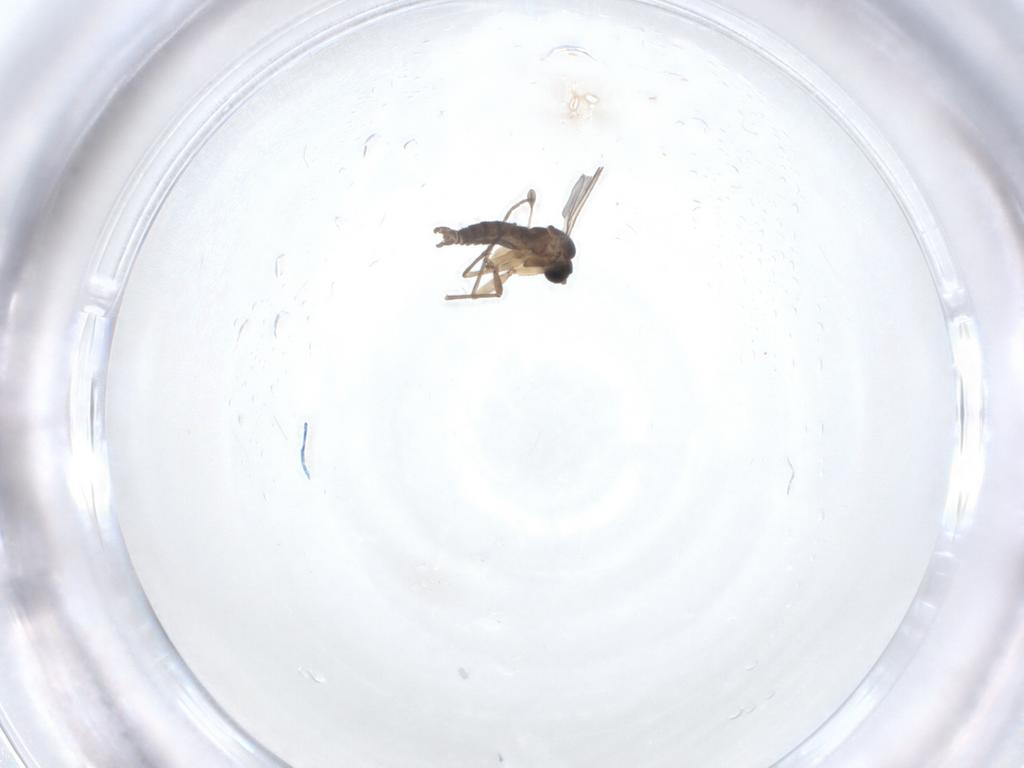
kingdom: Animalia
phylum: Arthropoda
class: Insecta
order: Diptera
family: Sciaridae
